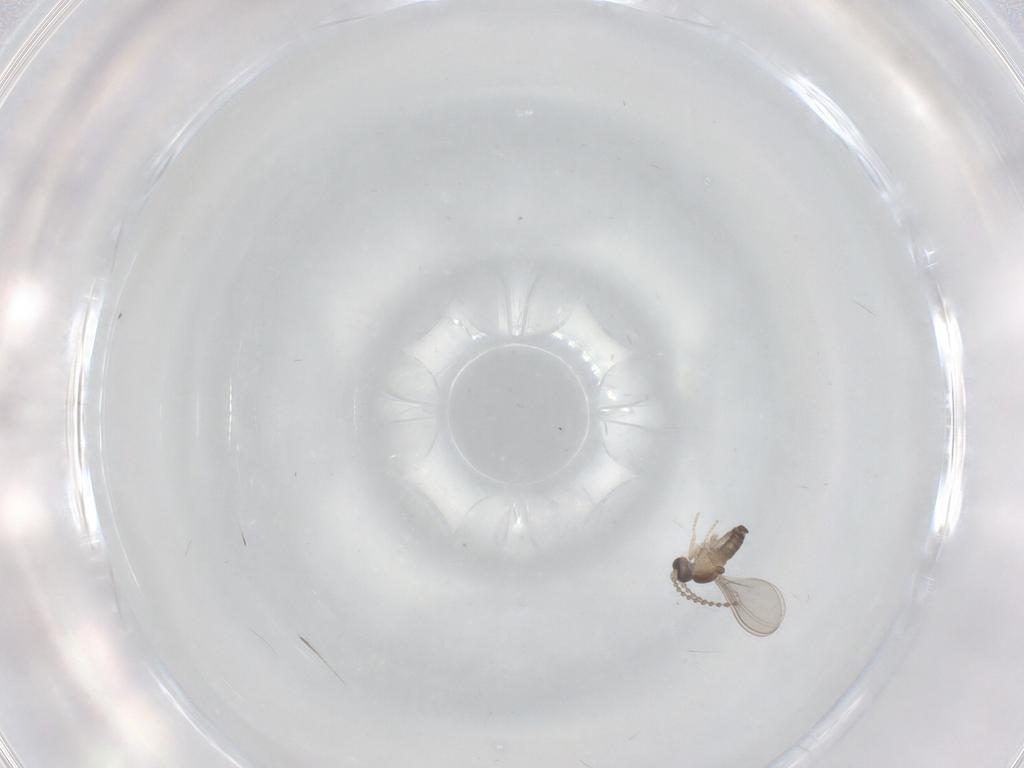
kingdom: Animalia
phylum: Arthropoda
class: Insecta
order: Diptera
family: Cecidomyiidae
